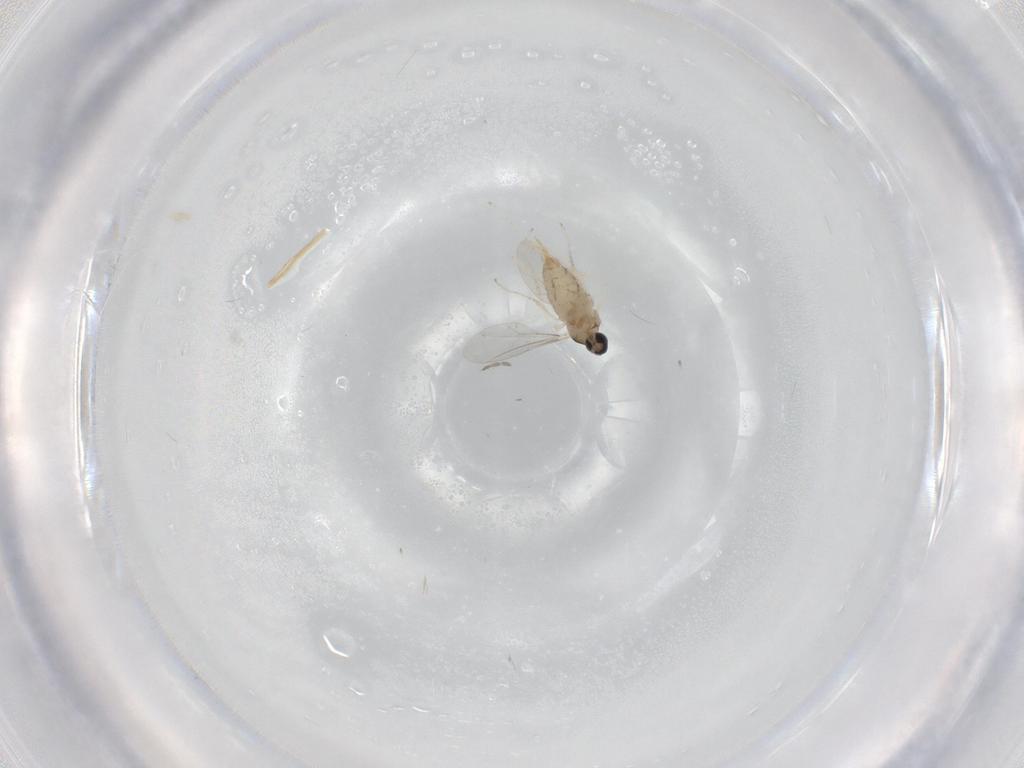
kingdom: Animalia
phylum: Arthropoda
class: Insecta
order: Diptera
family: Cecidomyiidae
